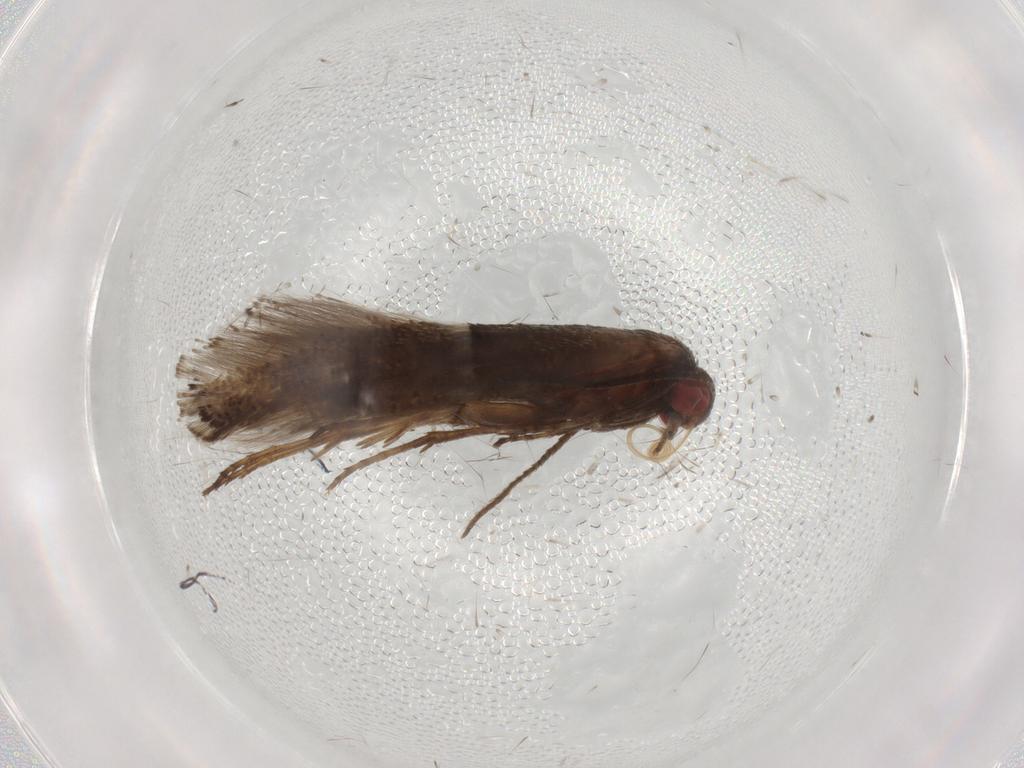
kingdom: Animalia
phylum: Arthropoda
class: Insecta
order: Lepidoptera
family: Douglasiidae
